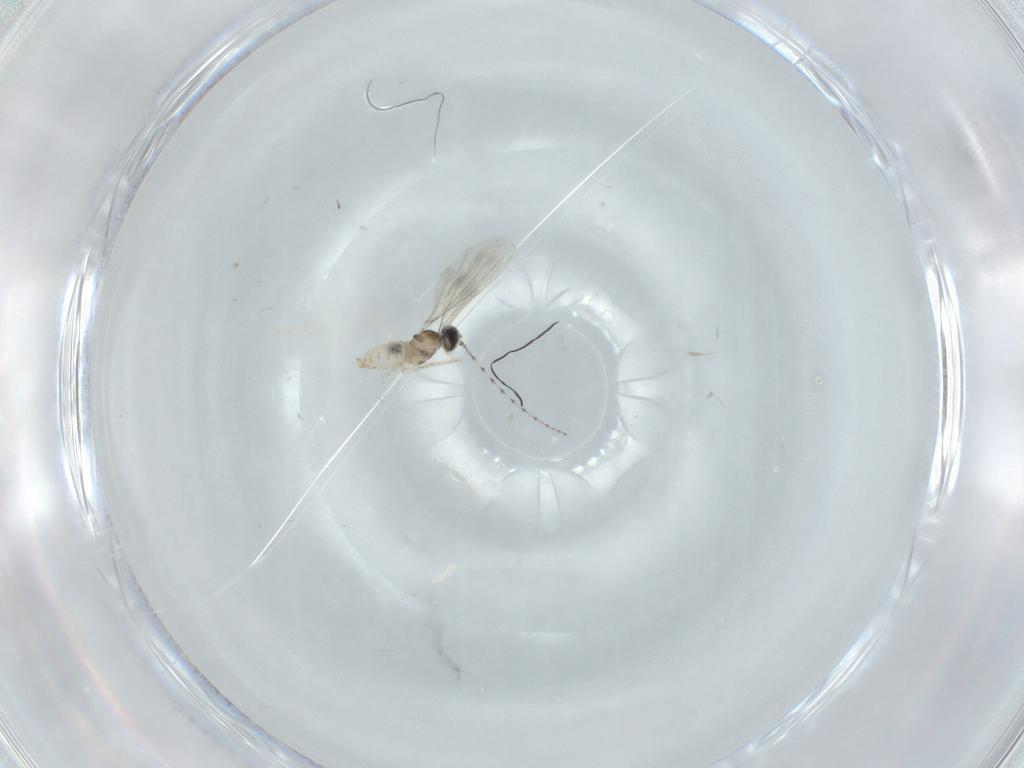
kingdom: Animalia
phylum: Arthropoda
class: Insecta
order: Diptera
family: Cecidomyiidae
